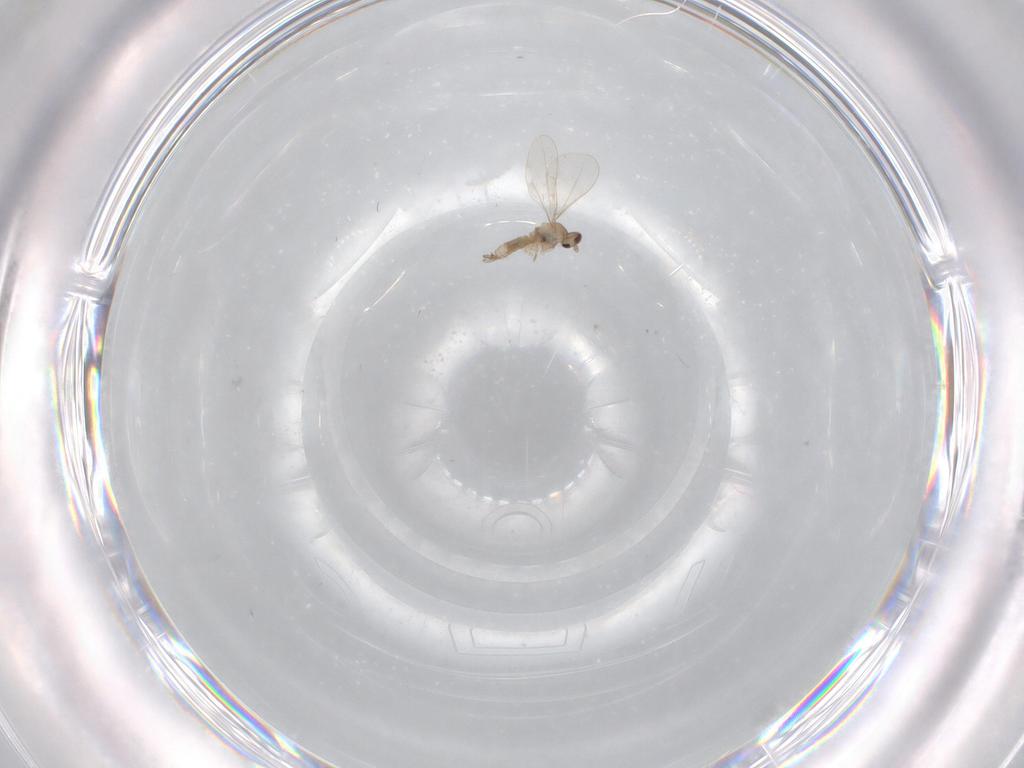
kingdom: Animalia
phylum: Arthropoda
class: Insecta
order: Diptera
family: Cecidomyiidae
